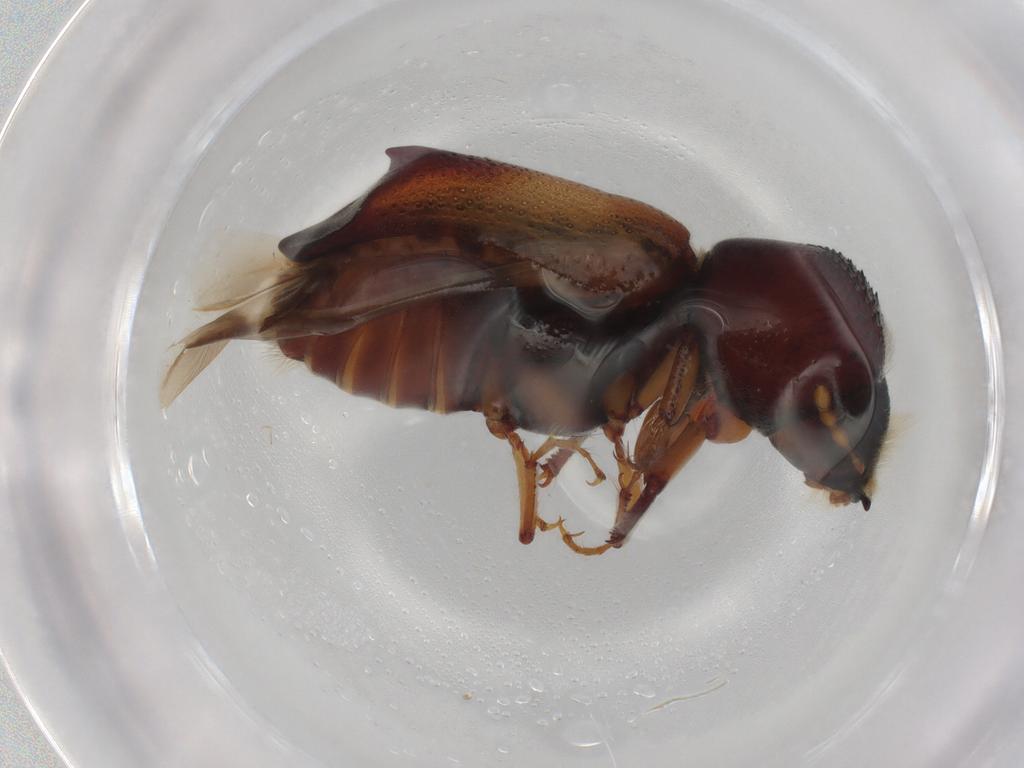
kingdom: Animalia
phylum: Arthropoda
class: Insecta
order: Coleoptera
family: Bostrichidae
